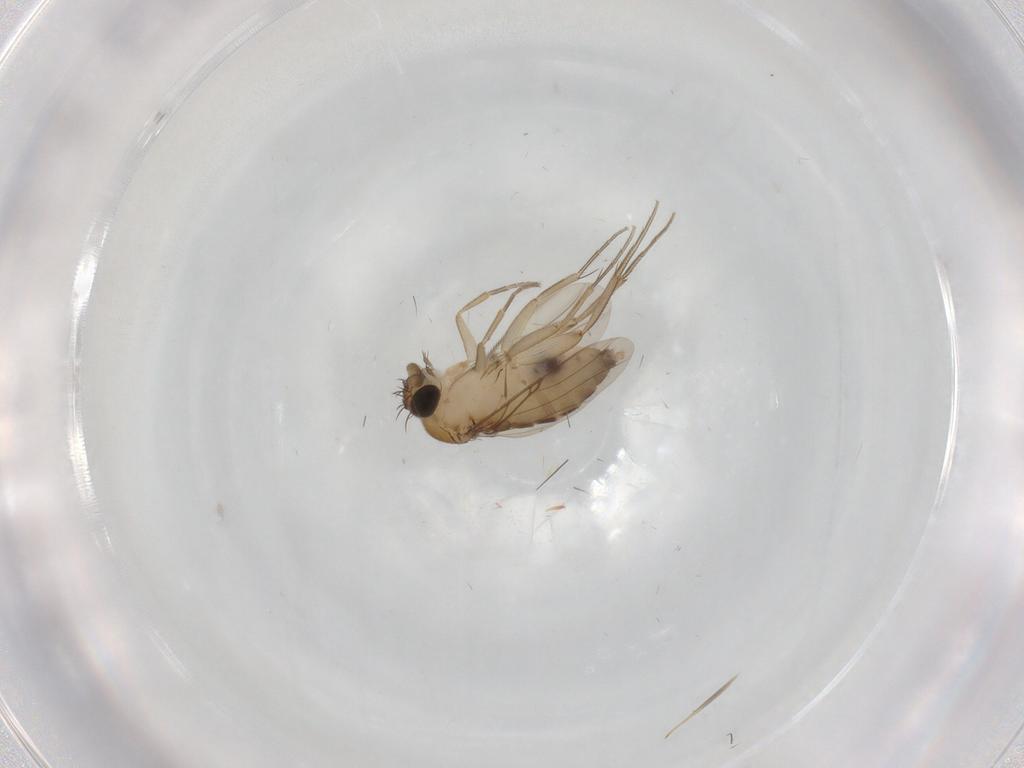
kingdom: Animalia
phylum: Arthropoda
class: Insecta
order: Diptera
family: Phoridae
